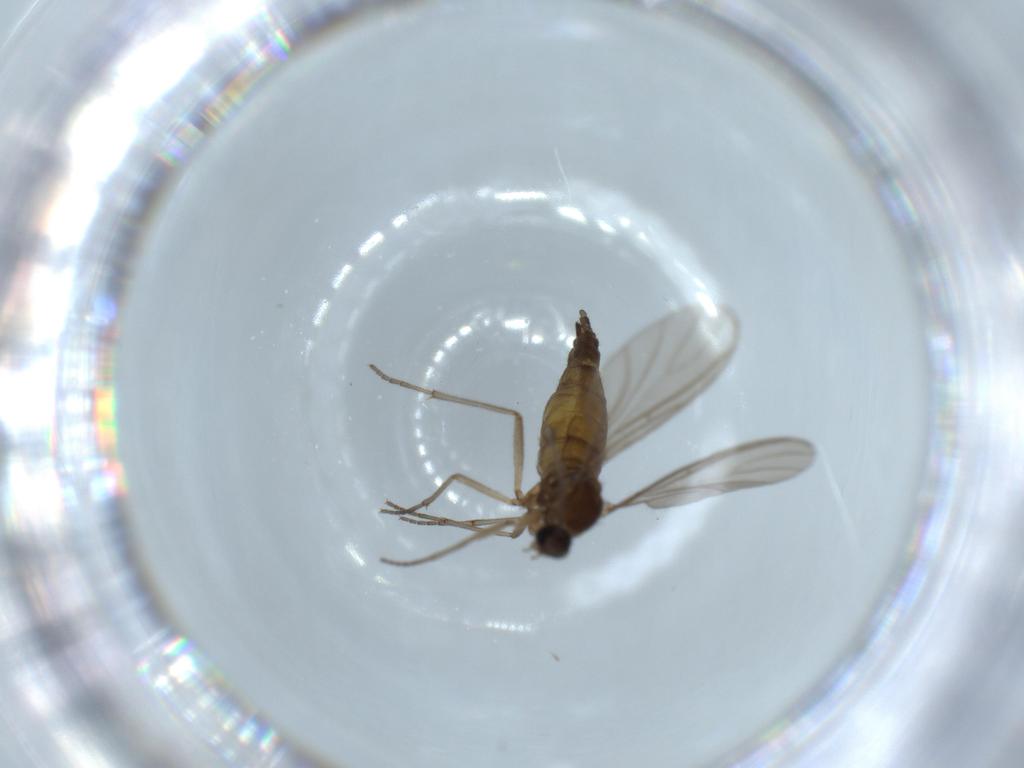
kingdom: Animalia
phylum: Arthropoda
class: Insecta
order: Diptera
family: Sciaridae
